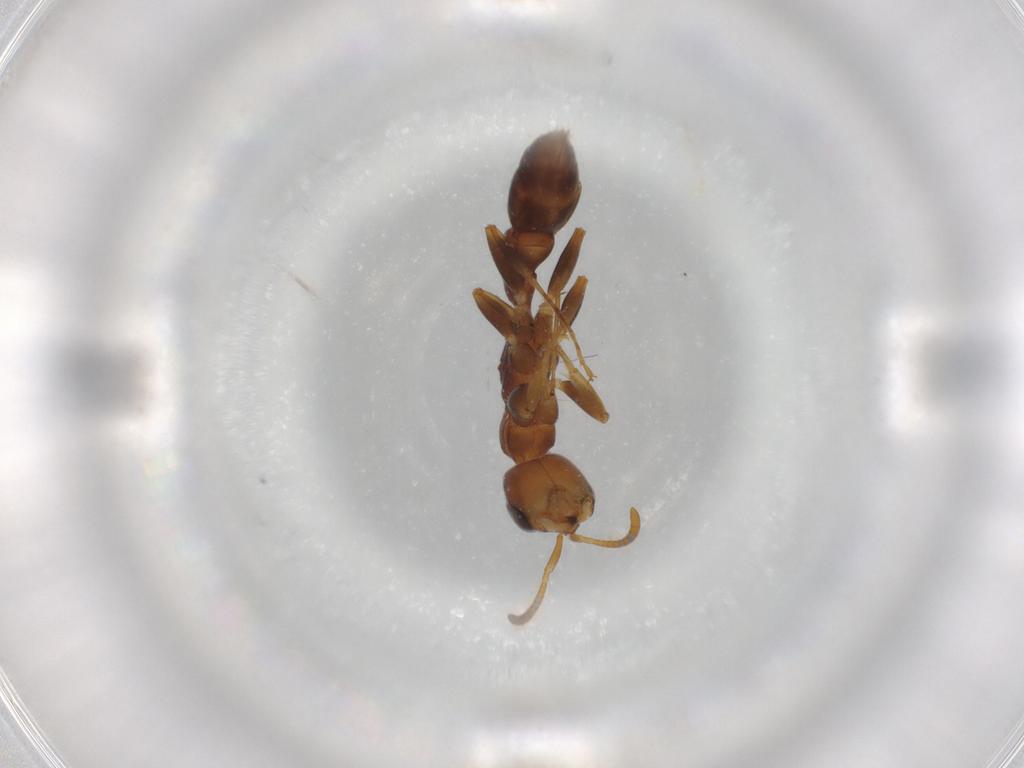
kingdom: Animalia
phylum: Arthropoda
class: Insecta
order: Hymenoptera
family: Formicidae
